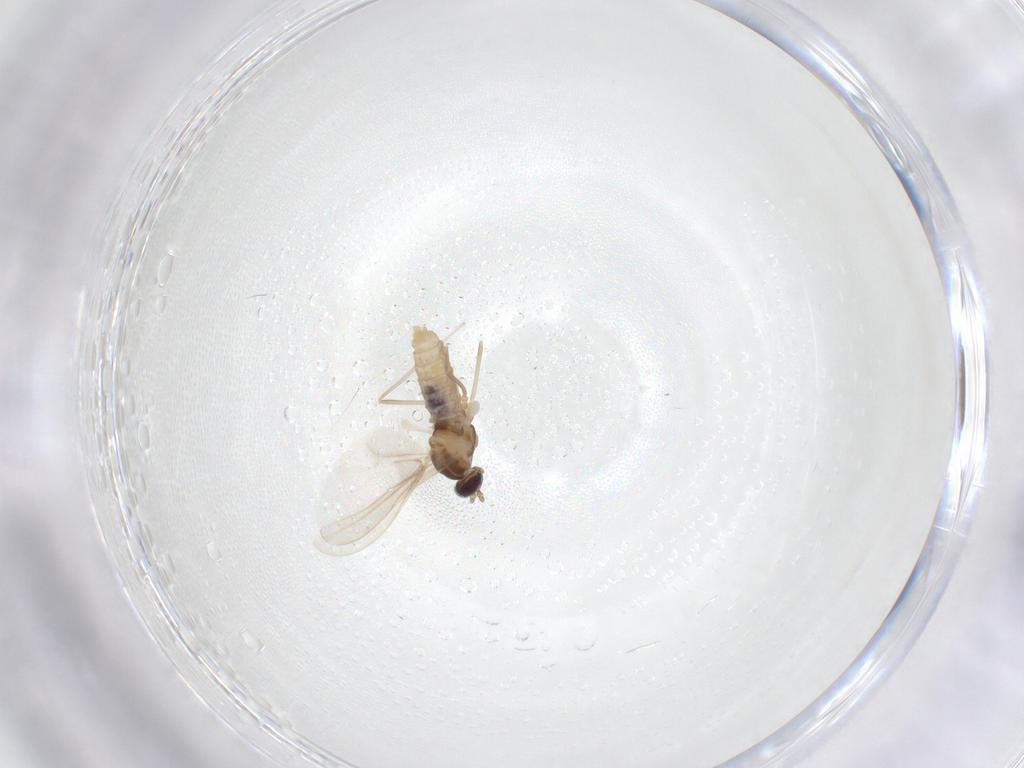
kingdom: Animalia
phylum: Arthropoda
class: Insecta
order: Diptera
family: Cecidomyiidae
